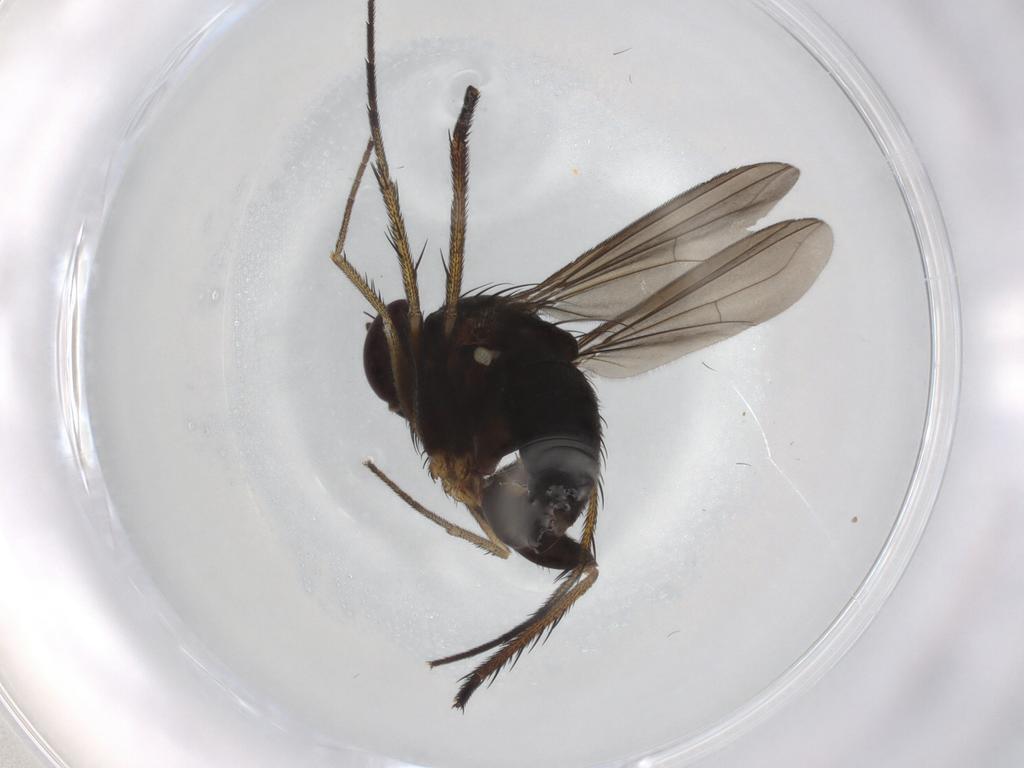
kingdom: Animalia
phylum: Arthropoda
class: Insecta
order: Diptera
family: Dolichopodidae
